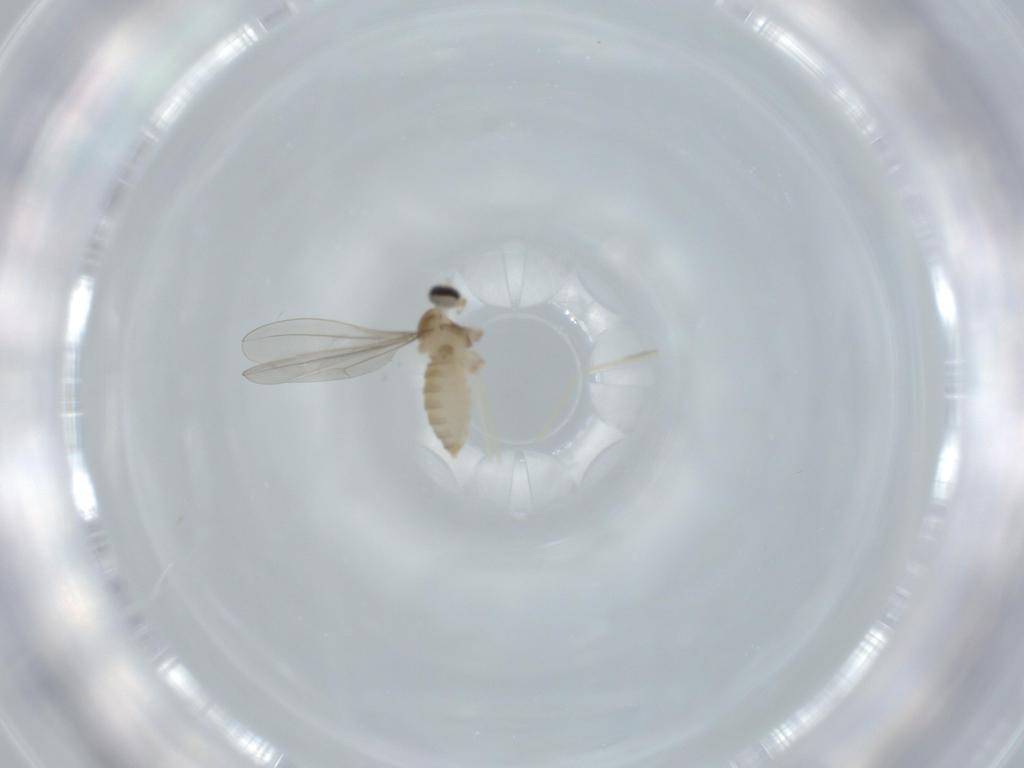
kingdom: Animalia
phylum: Arthropoda
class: Insecta
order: Diptera
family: Cecidomyiidae
